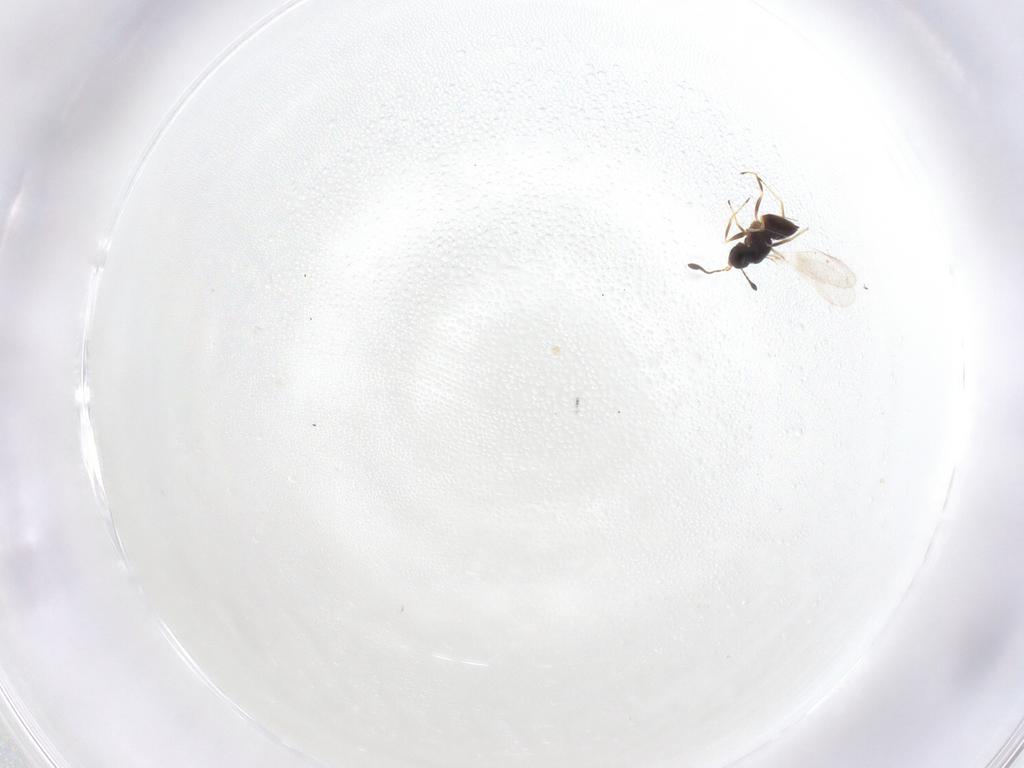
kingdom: Animalia
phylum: Arthropoda
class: Insecta
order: Hymenoptera
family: Mymaridae
